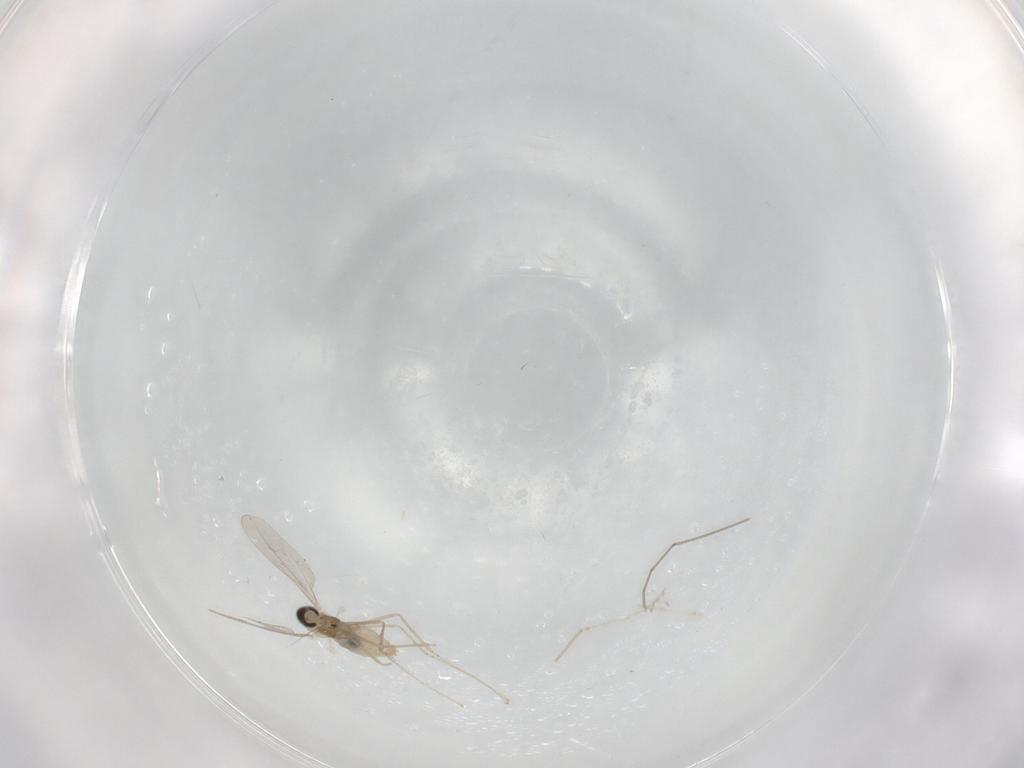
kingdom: Animalia
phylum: Arthropoda
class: Insecta
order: Diptera
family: Cecidomyiidae
